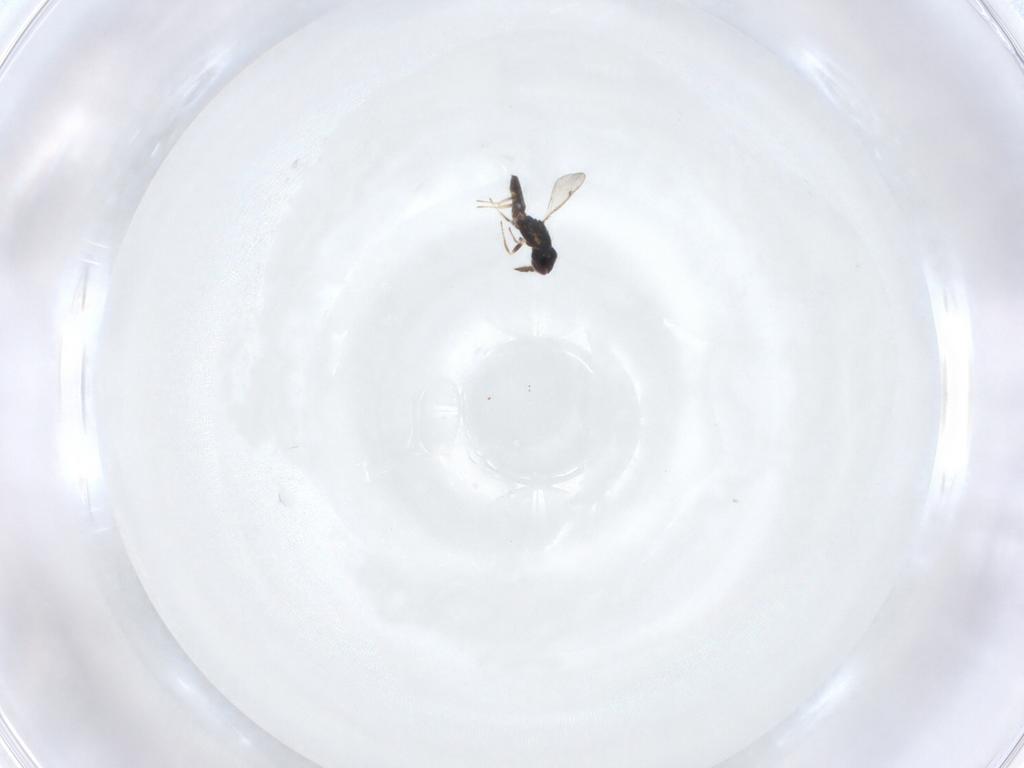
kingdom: Animalia
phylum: Arthropoda
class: Insecta
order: Hymenoptera
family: Eulophidae
